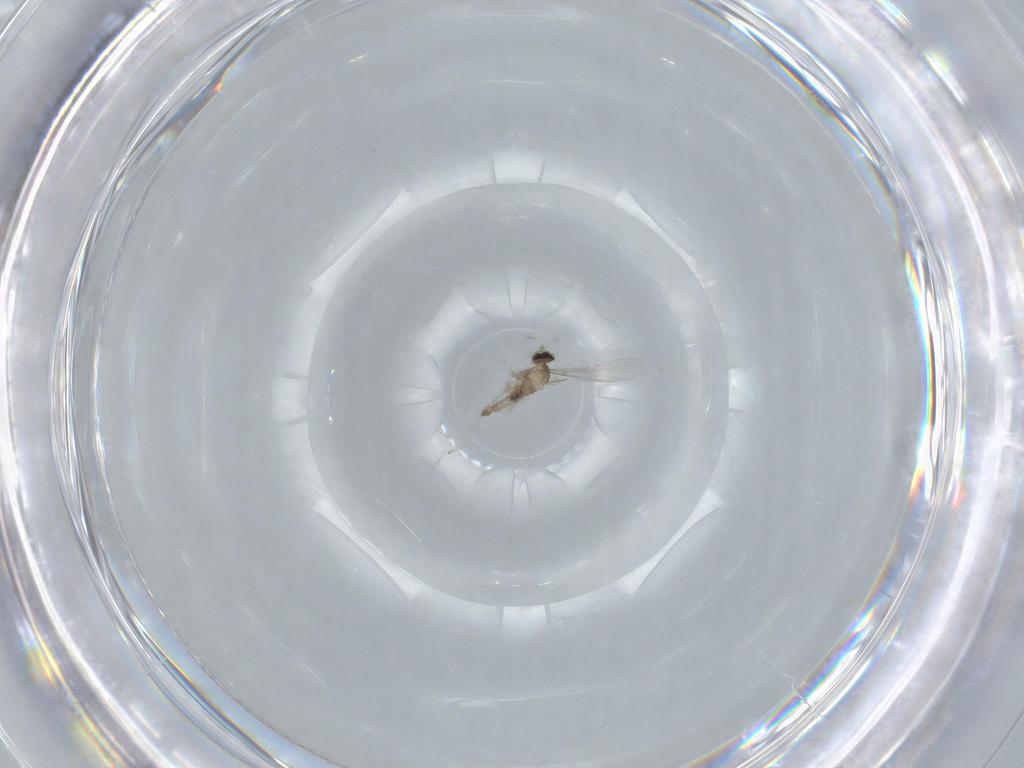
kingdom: Animalia
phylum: Arthropoda
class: Insecta
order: Diptera
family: Cecidomyiidae
